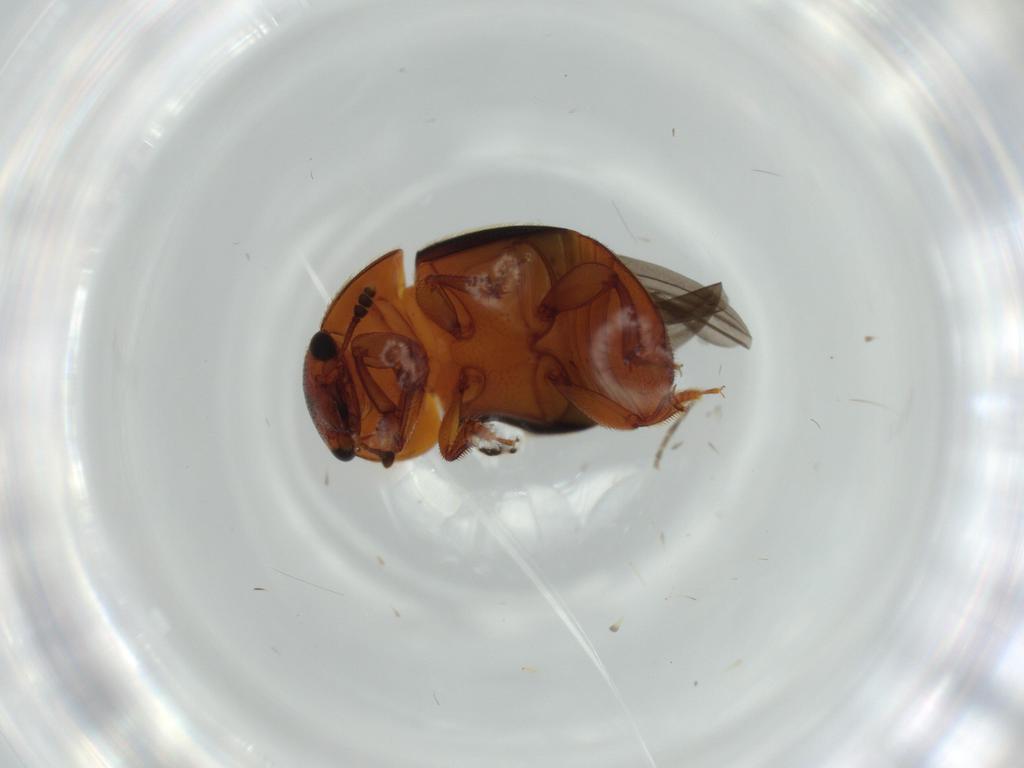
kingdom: Animalia
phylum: Arthropoda
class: Insecta
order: Coleoptera
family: Nitidulidae
